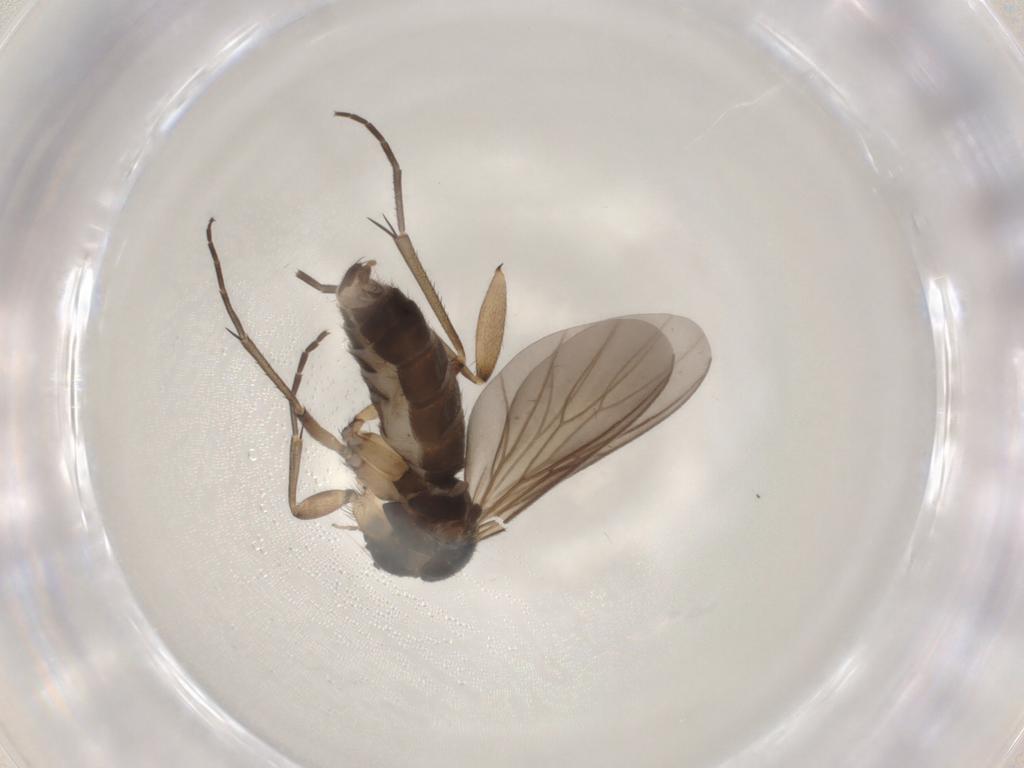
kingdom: Animalia
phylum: Arthropoda
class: Insecta
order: Diptera
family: Mycetophilidae
